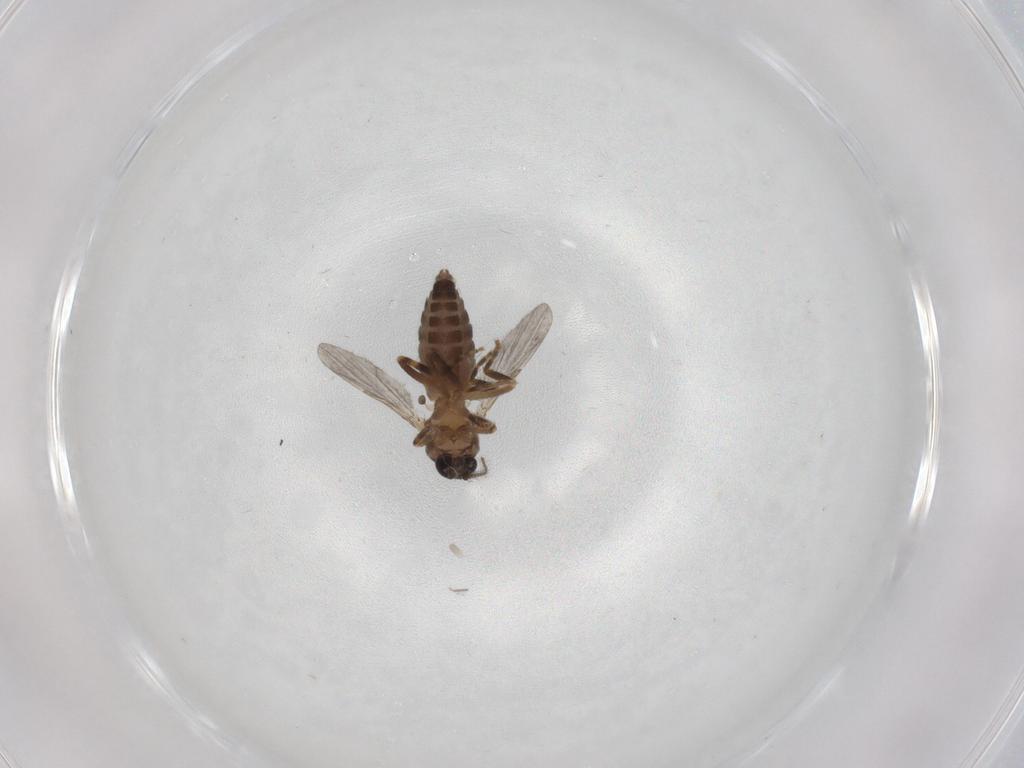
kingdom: Animalia
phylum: Arthropoda
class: Insecta
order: Diptera
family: Ceratopogonidae
